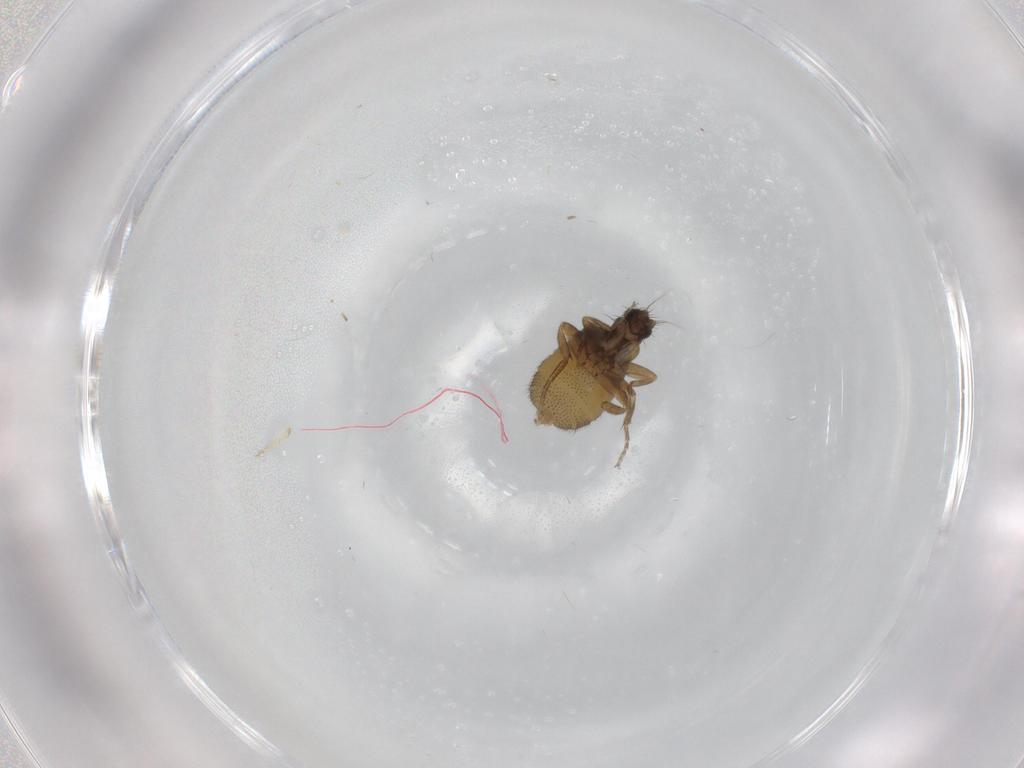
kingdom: Animalia
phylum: Arthropoda
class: Insecta
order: Diptera
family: Phoridae
